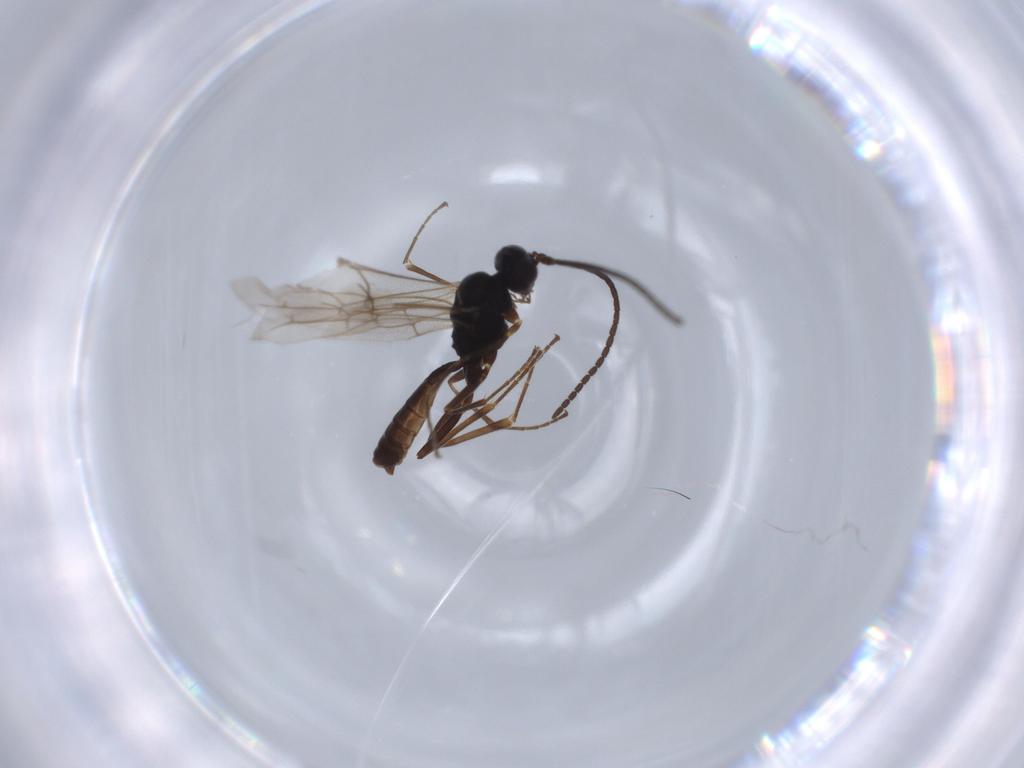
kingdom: Animalia
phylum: Arthropoda
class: Insecta
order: Hymenoptera
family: Ichneumonidae
